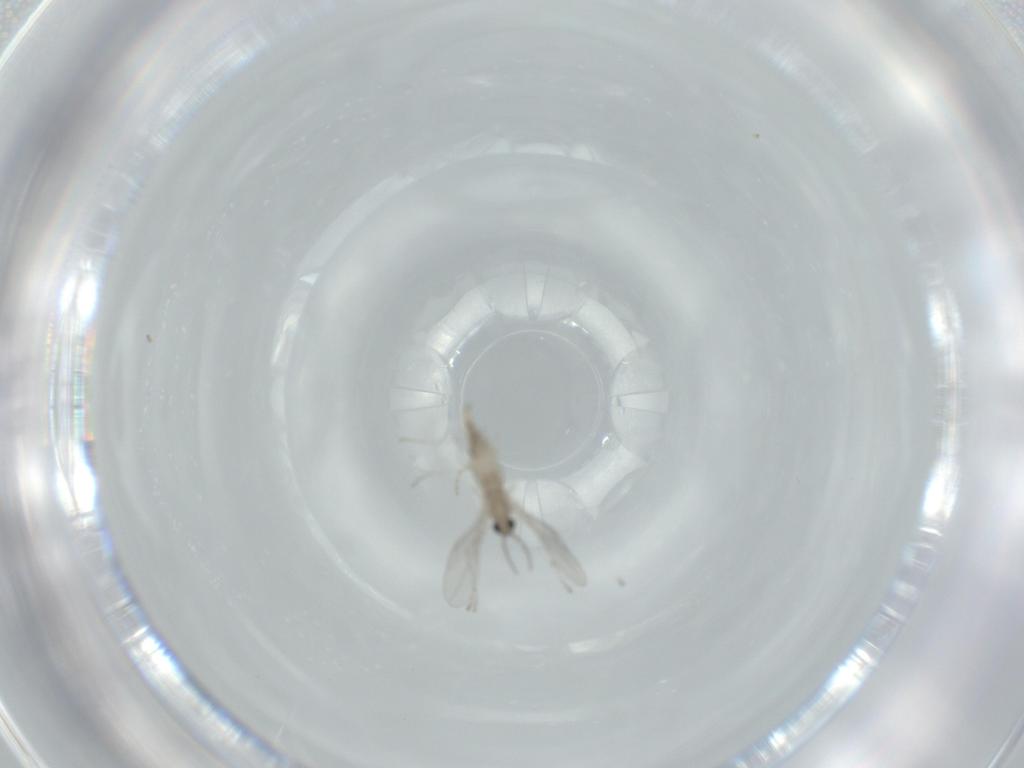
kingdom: Animalia
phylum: Arthropoda
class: Insecta
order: Diptera
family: Sciaridae
